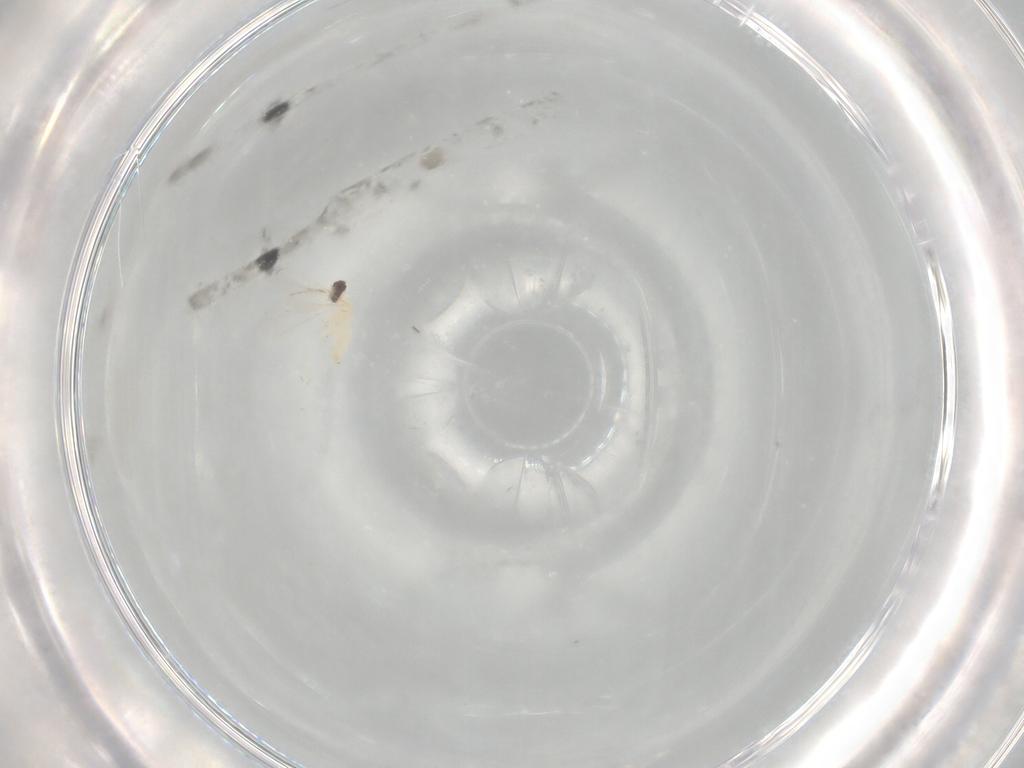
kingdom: Animalia
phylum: Arthropoda
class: Insecta
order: Diptera
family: Cecidomyiidae
